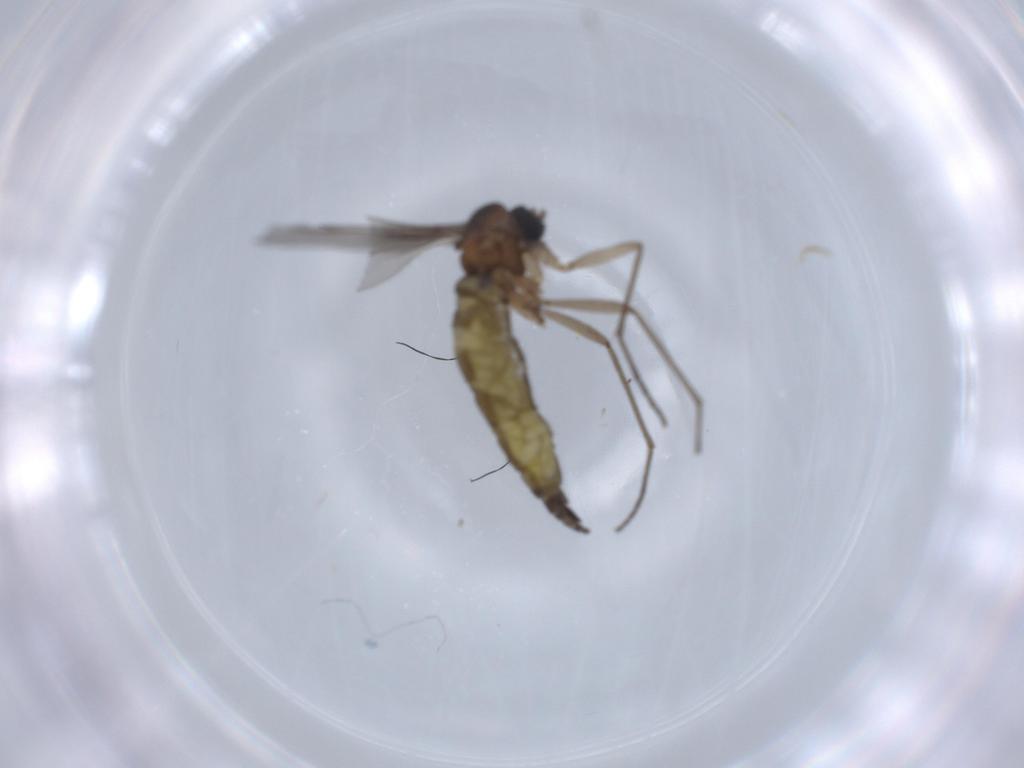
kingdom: Animalia
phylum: Arthropoda
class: Insecta
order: Diptera
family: Sciaridae
